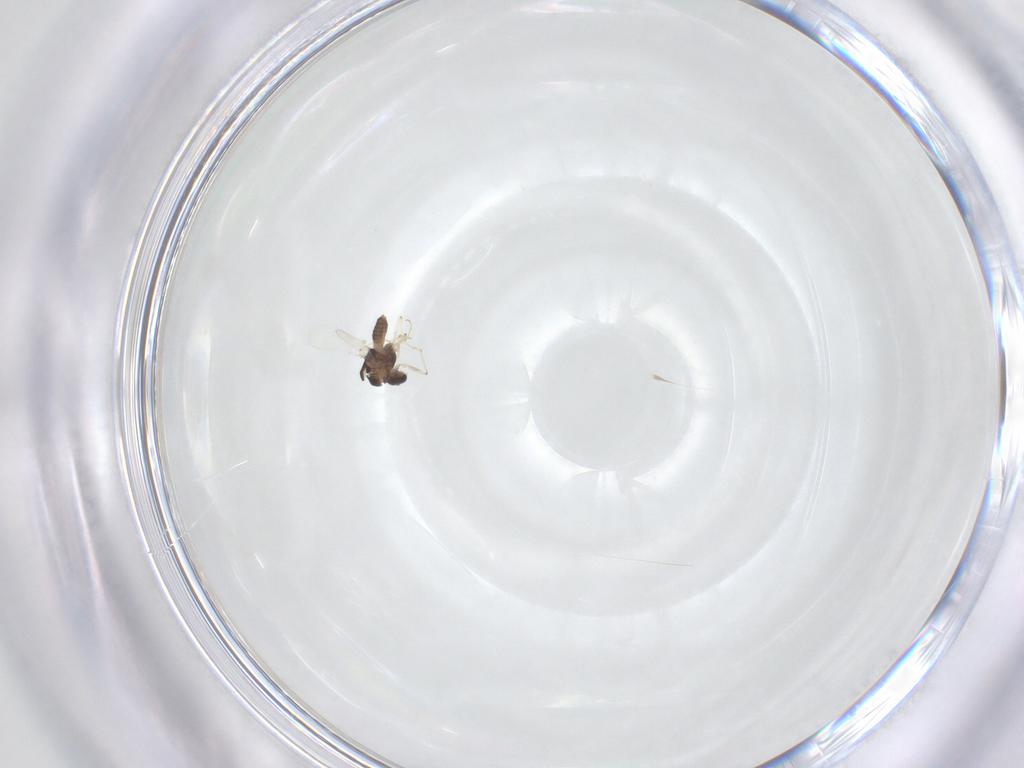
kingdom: Animalia
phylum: Arthropoda
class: Insecta
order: Diptera
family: Chironomidae
